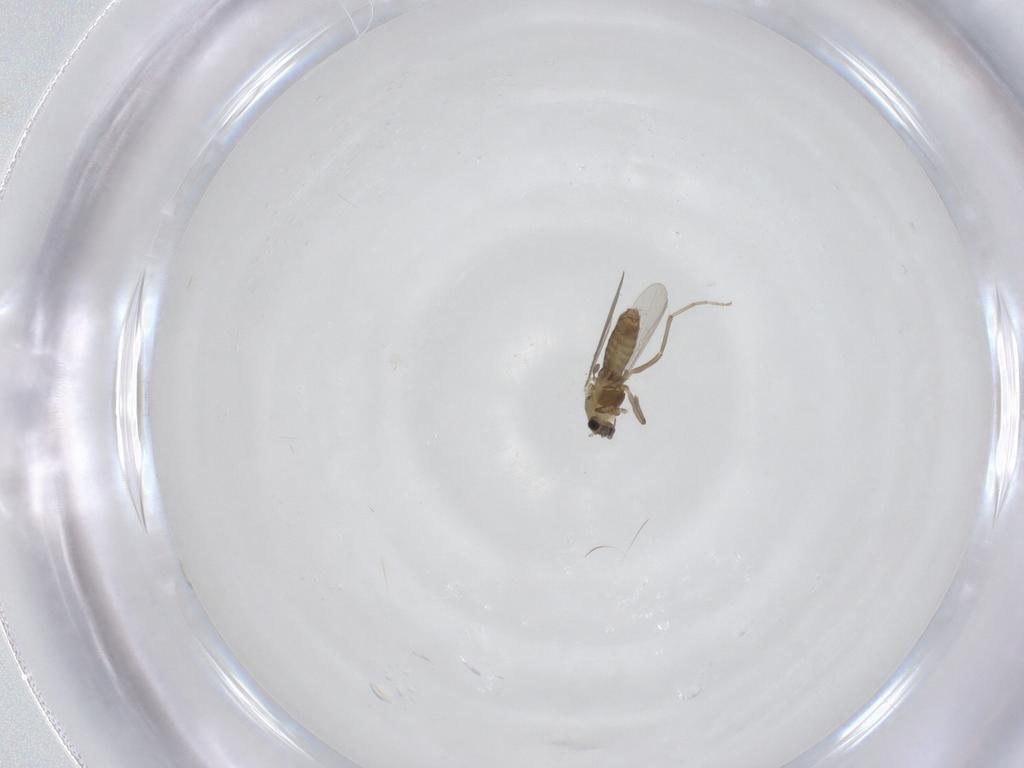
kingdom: Animalia
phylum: Arthropoda
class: Insecta
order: Diptera
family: Chironomidae
